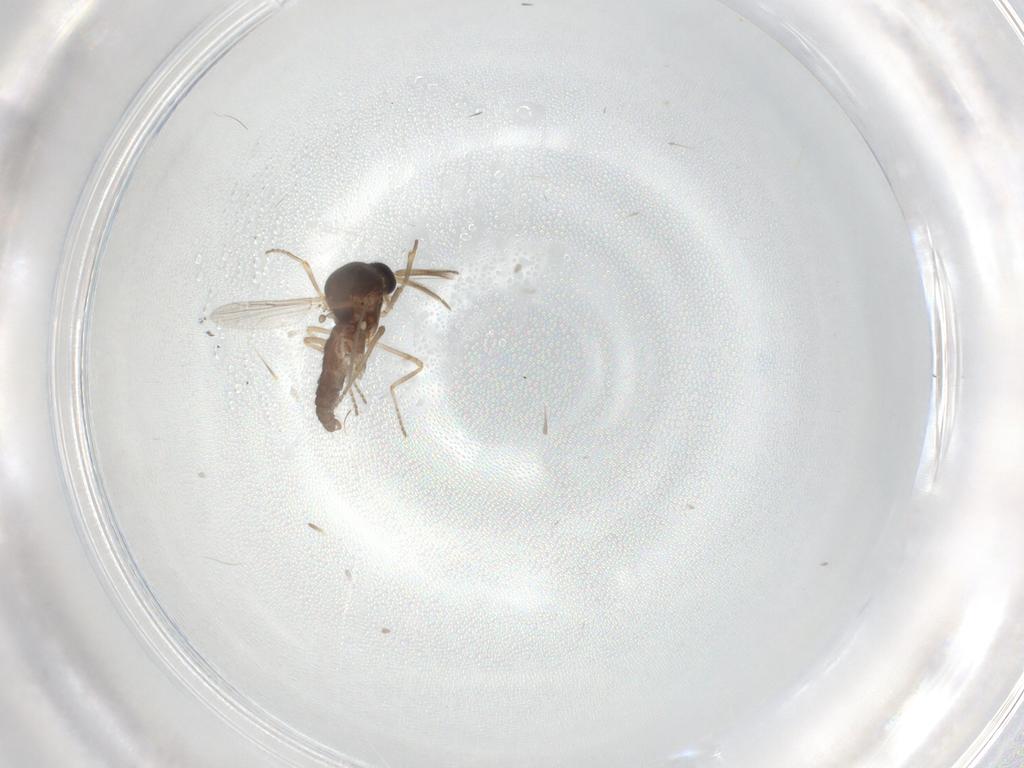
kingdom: Animalia
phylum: Arthropoda
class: Insecta
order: Diptera
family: Ceratopogonidae
